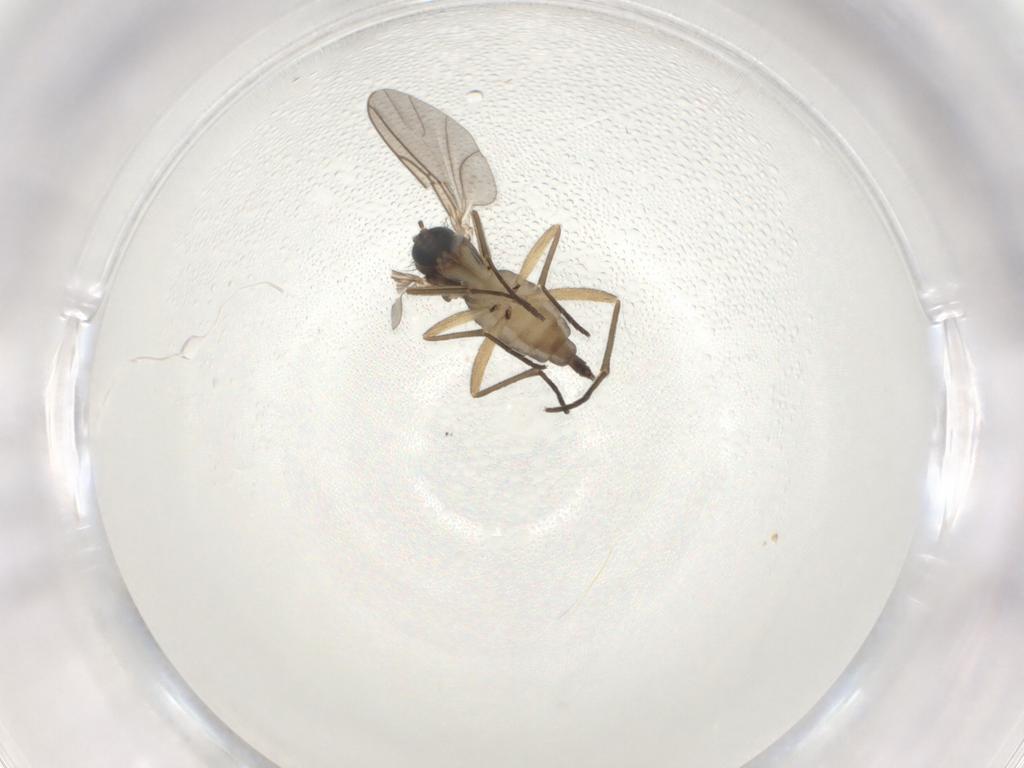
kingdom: Animalia
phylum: Arthropoda
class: Insecta
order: Diptera
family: Sciaridae
